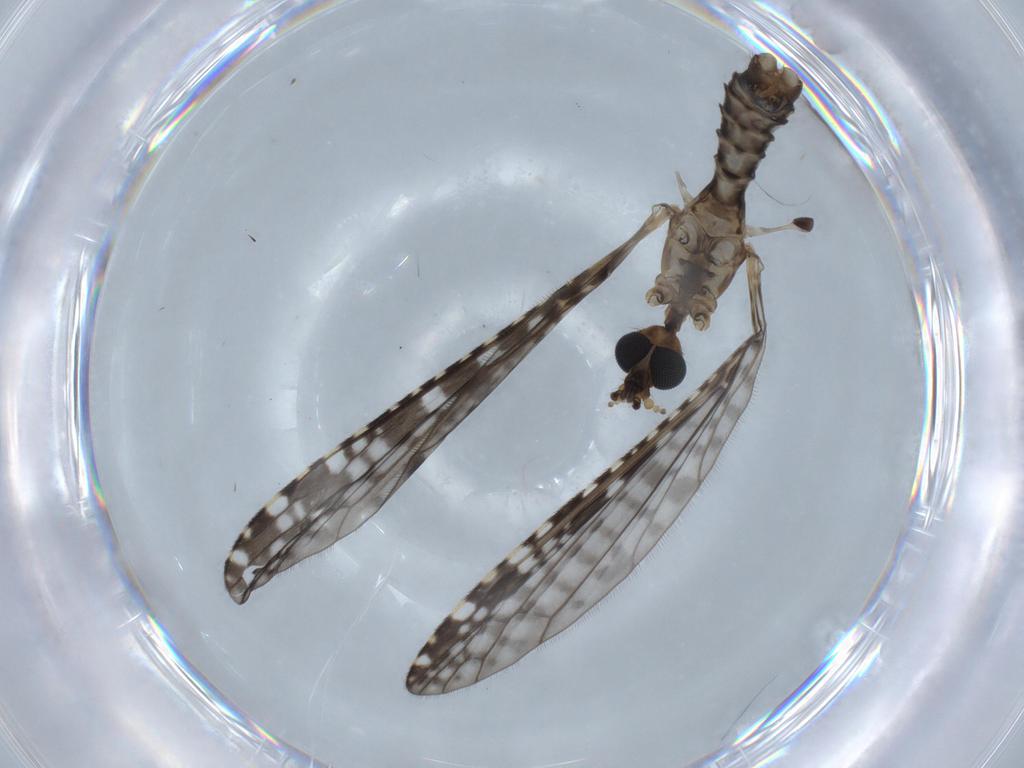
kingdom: Animalia
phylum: Arthropoda
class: Insecta
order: Diptera
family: Limoniidae
